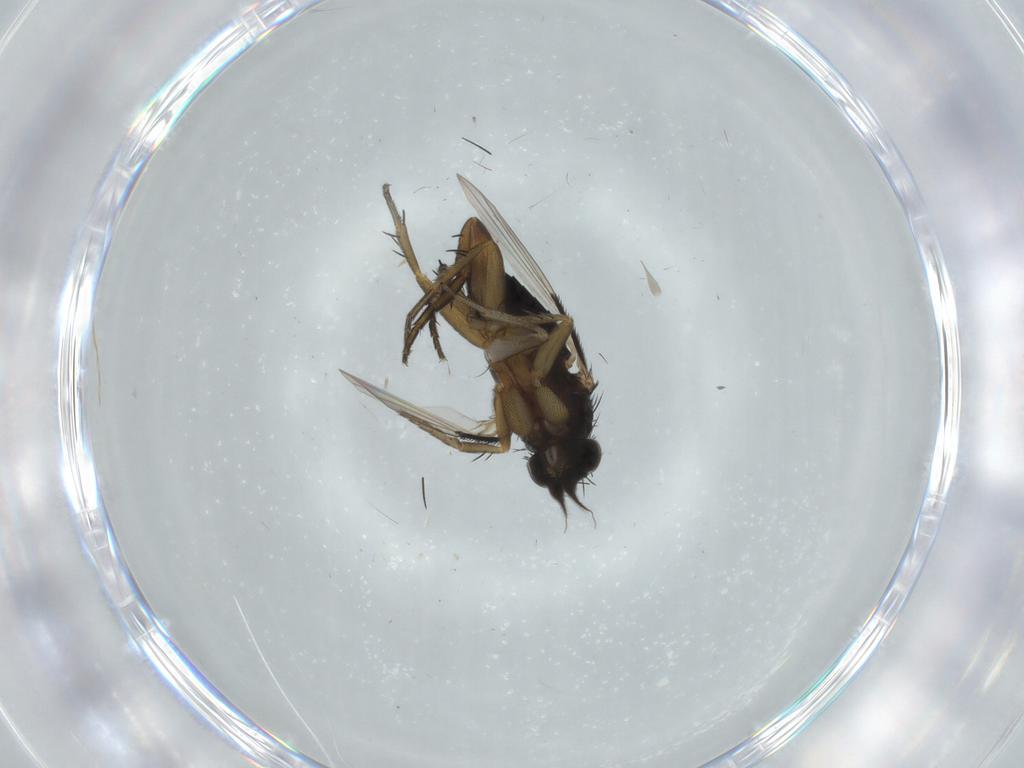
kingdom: Animalia
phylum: Arthropoda
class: Insecta
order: Diptera
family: Phoridae
